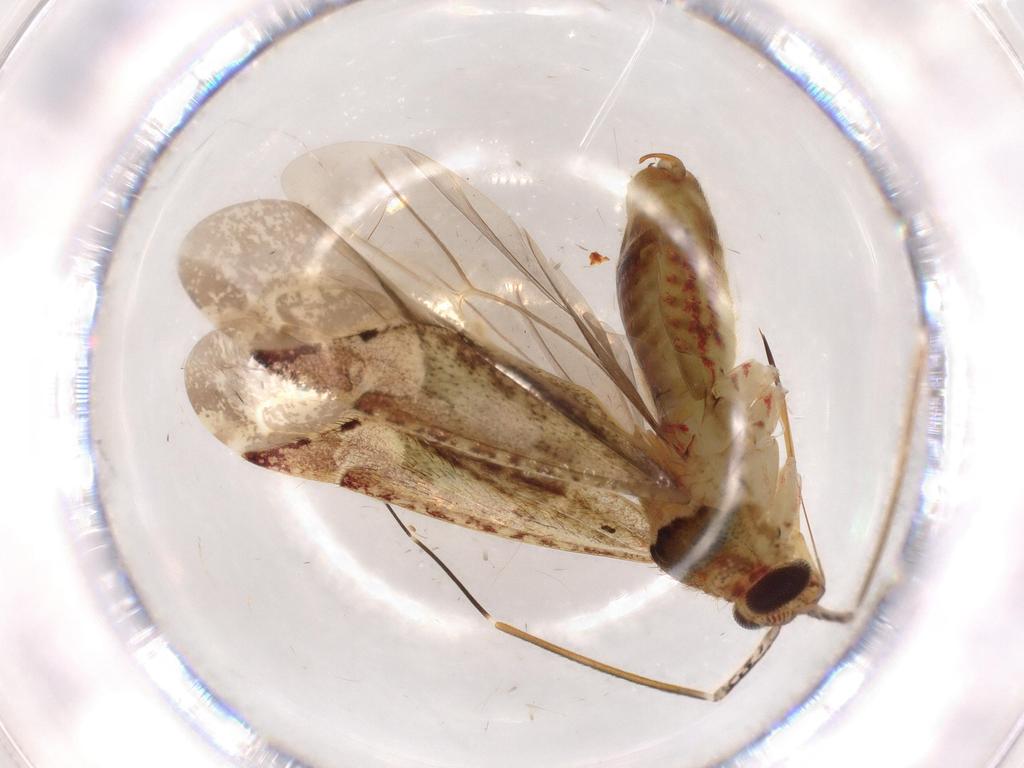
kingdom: Animalia
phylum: Arthropoda
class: Insecta
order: Hemiptera
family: Miridae
